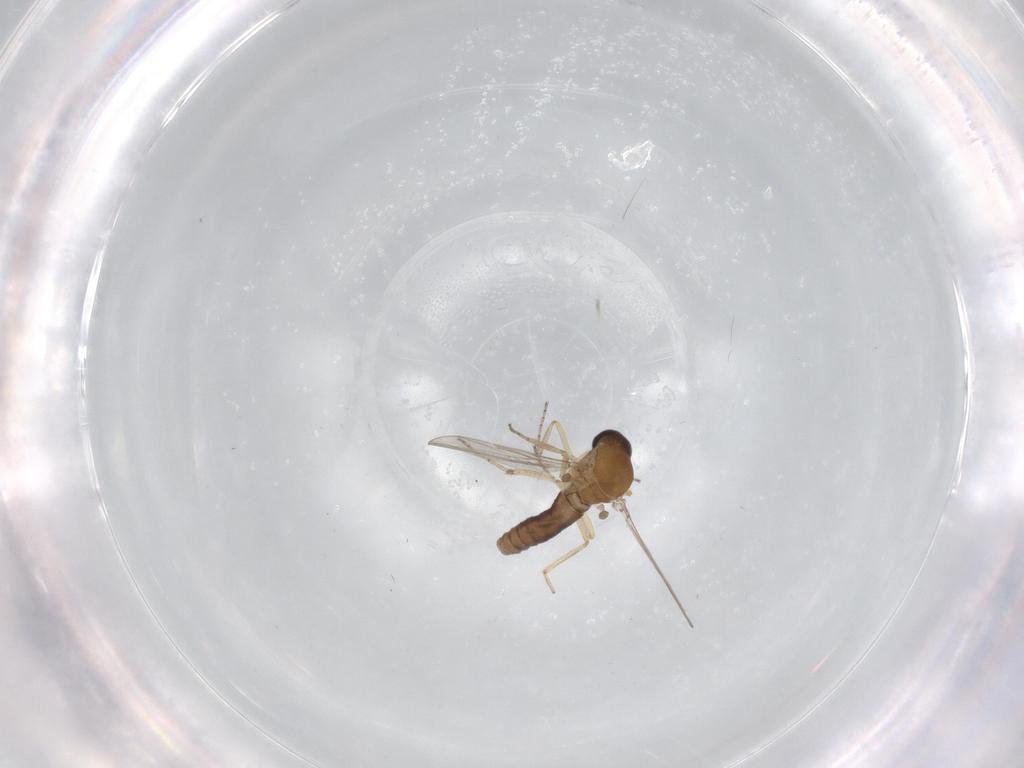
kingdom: Animalia
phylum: Arthropoda
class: Insecta
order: Diptera
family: Ceratopogonidae
